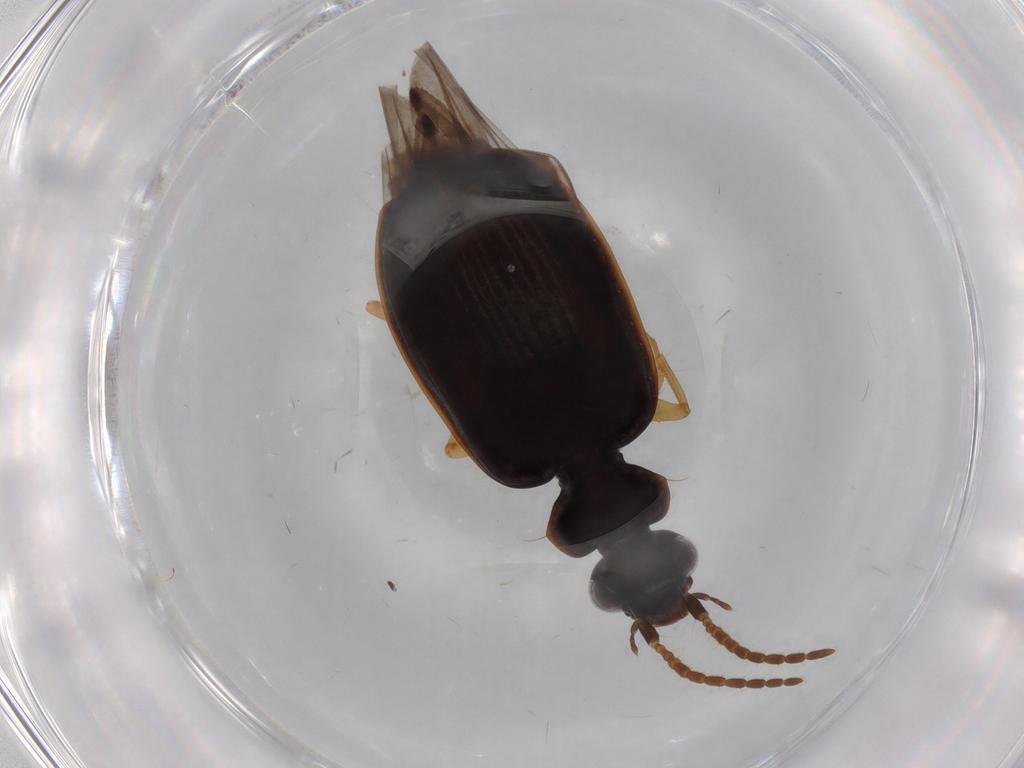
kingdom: Animalia
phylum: Arthropoda
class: Insecta
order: Coleoptera
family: Carabidae
